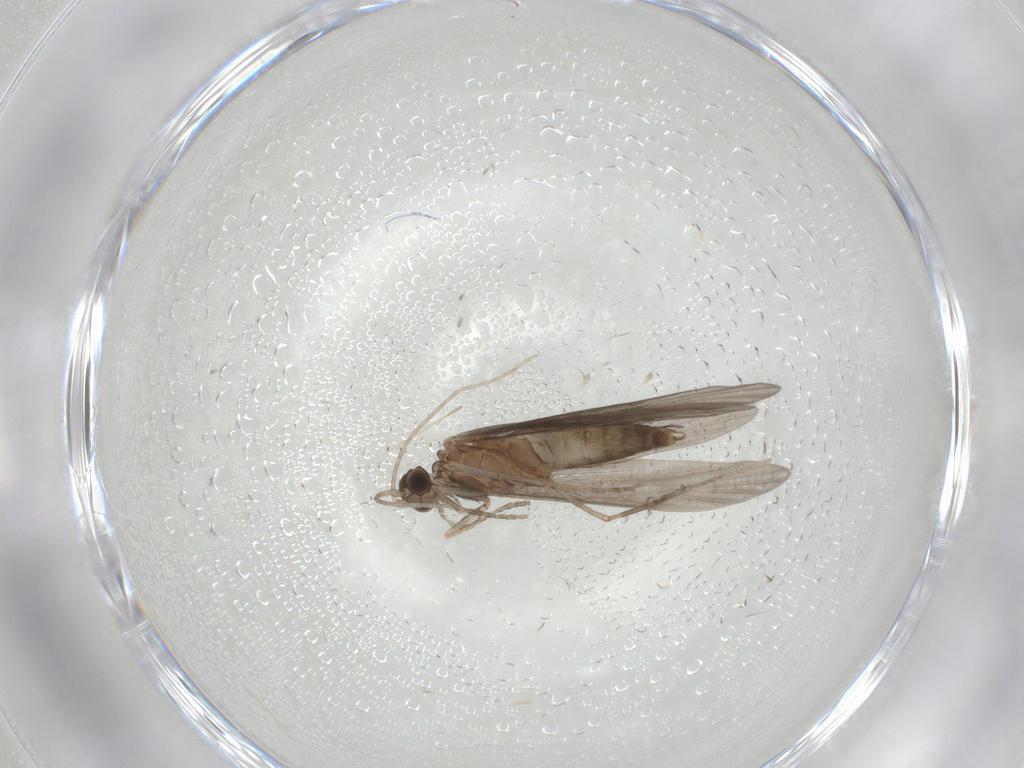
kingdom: Animalia
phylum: Arthropoda
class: Insecta
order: Trichoptera
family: Xiphocentronidae
